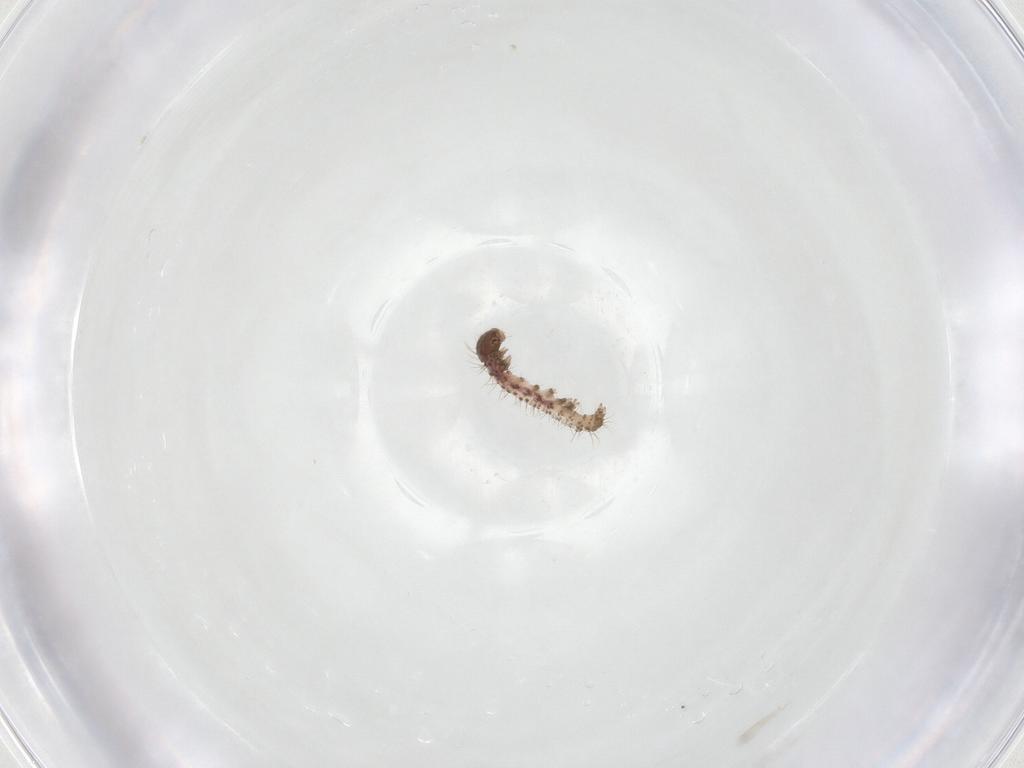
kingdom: Animalia
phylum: Arthropoda
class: Insecta
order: Lepidoptera
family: Erebidae
